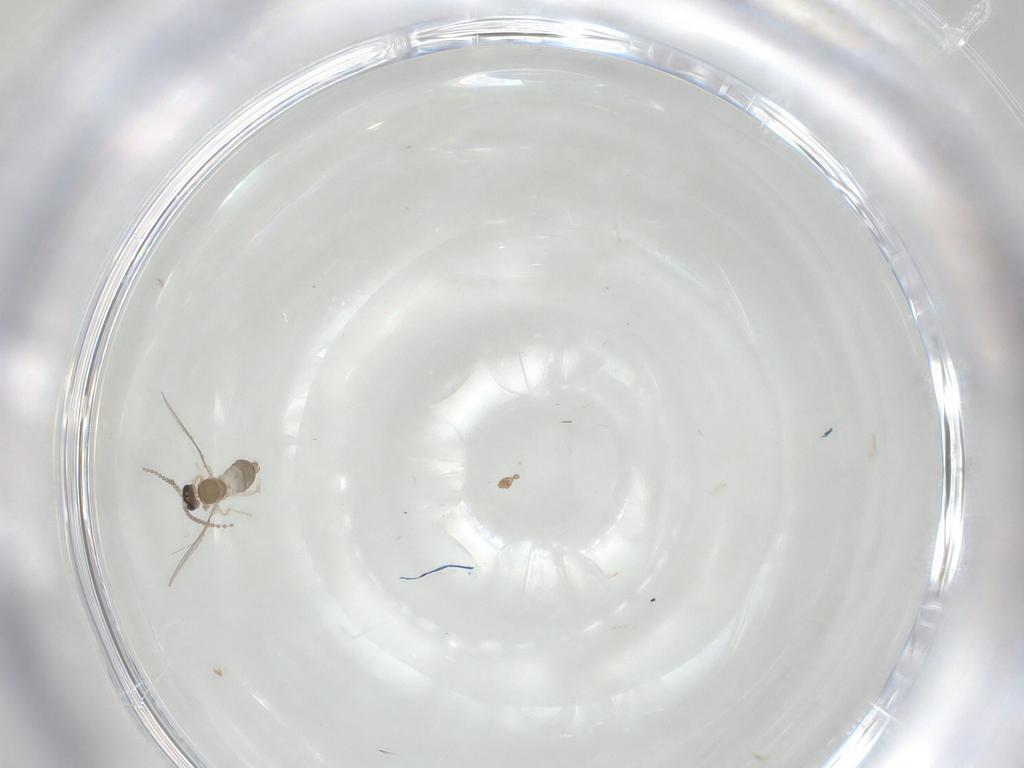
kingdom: Animalia
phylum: Arthropoda
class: Insecta
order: Diptera
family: Cecidomyiidae
